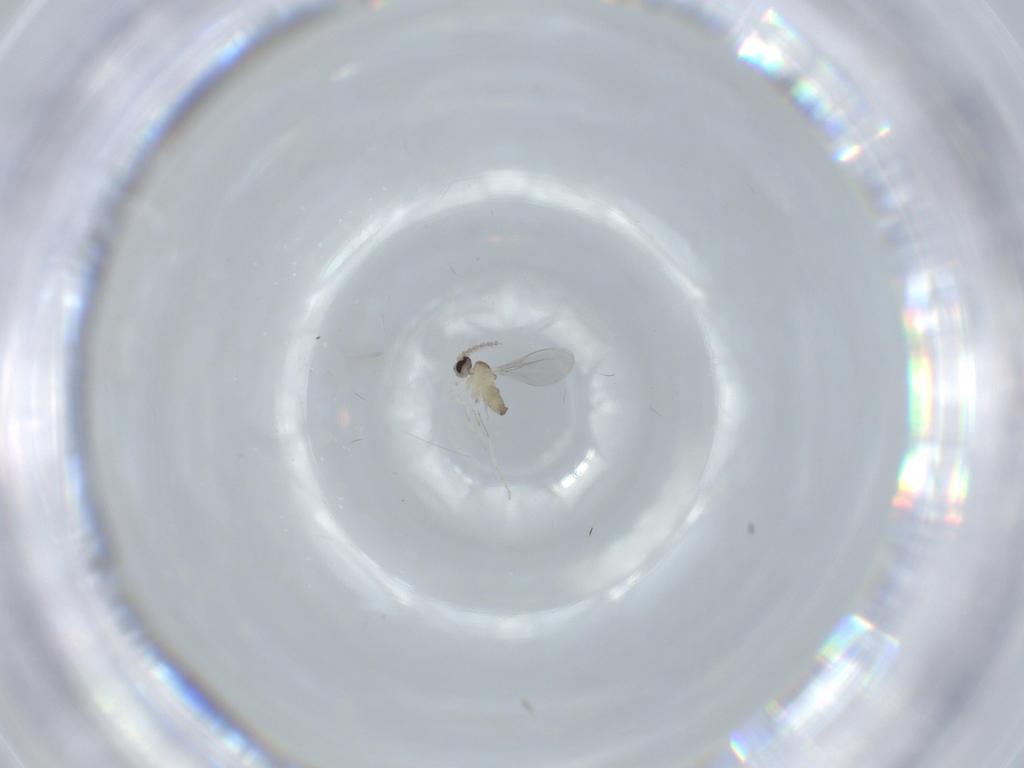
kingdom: Animalia
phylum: Arthropoda
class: Insecta
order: Diptera
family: Cecidomyiidae
